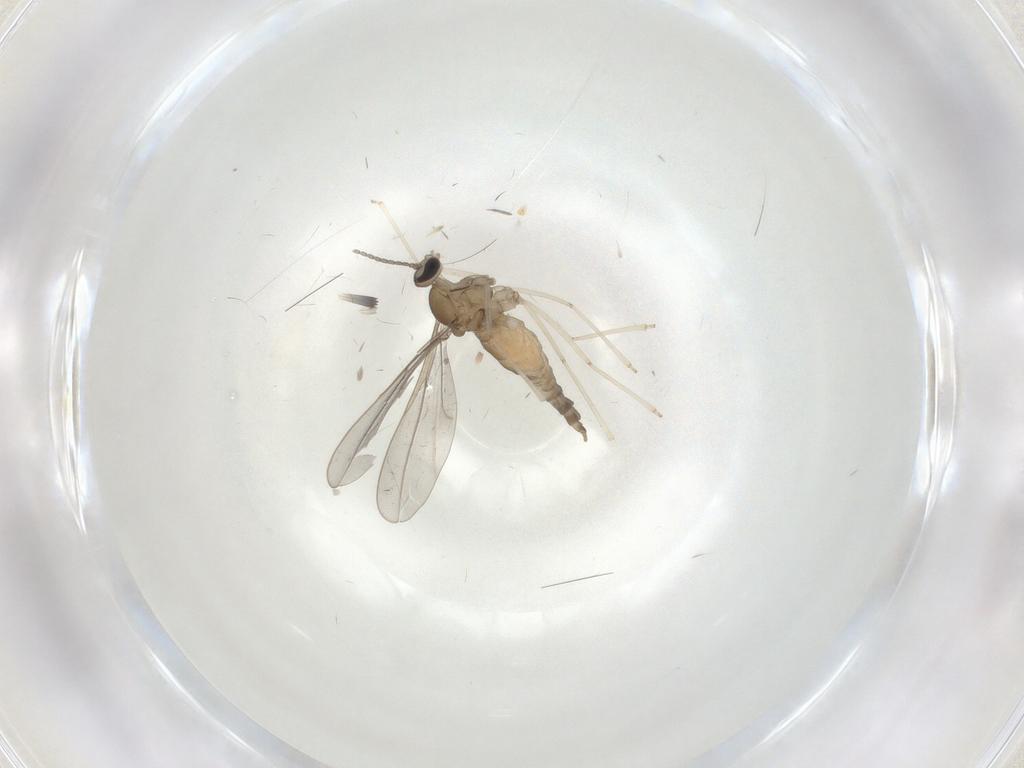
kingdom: Animalia
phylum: Arthropoda
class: Insecta
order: Diptera
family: Cecidomyiidae
